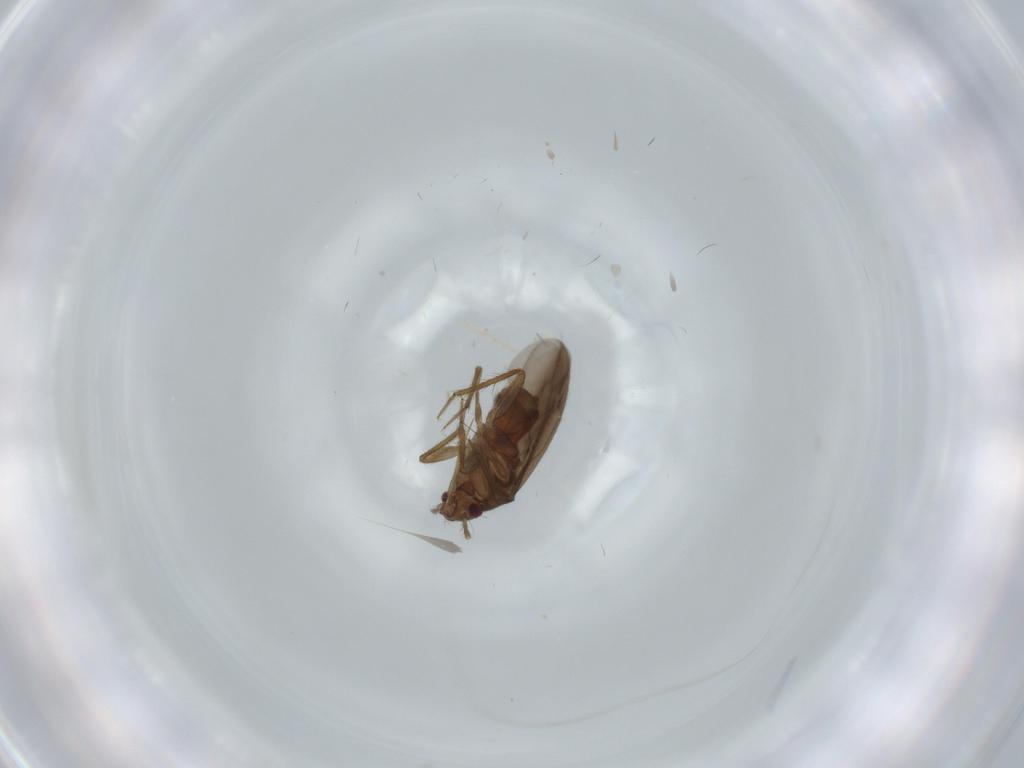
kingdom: Animalia
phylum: Arthropoda
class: Insecta
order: Hemiptera
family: Ceratocombidae
